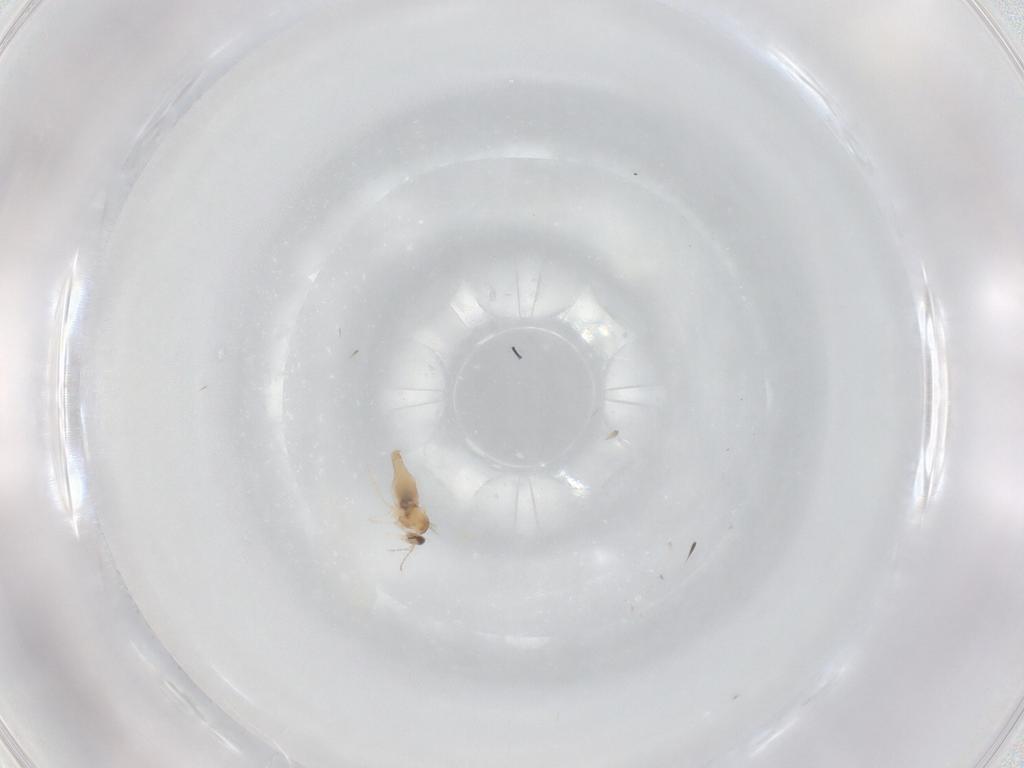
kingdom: Animalia
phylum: Arthropoda
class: Insecta
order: Diptera
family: Cecidomyiidae
